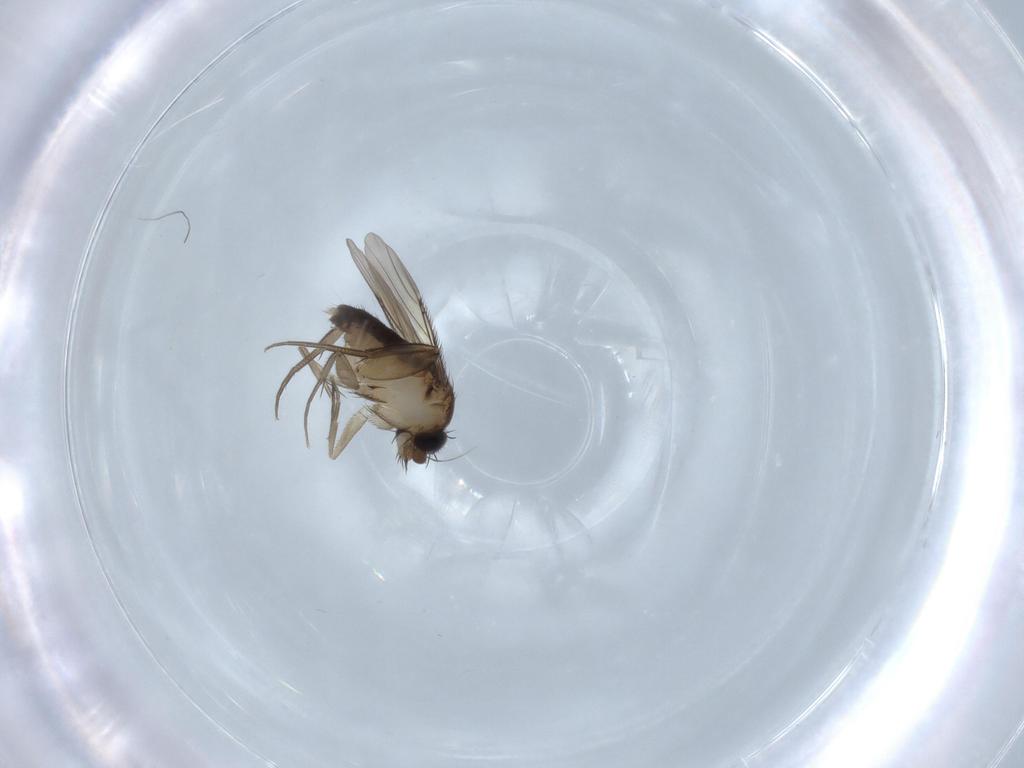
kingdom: Animalia
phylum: Arthropoda
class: Insecta
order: Diptera
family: Phoridae
